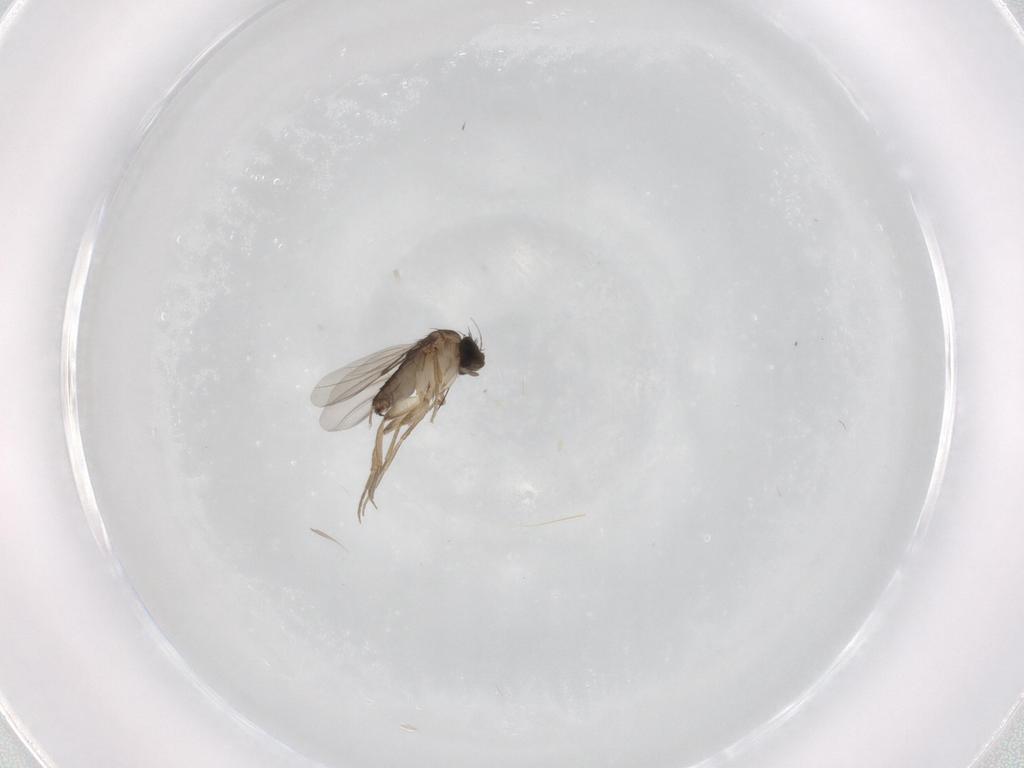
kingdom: Animalia
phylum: Arthropoda
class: Insecta
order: Diptera
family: Phoridae
